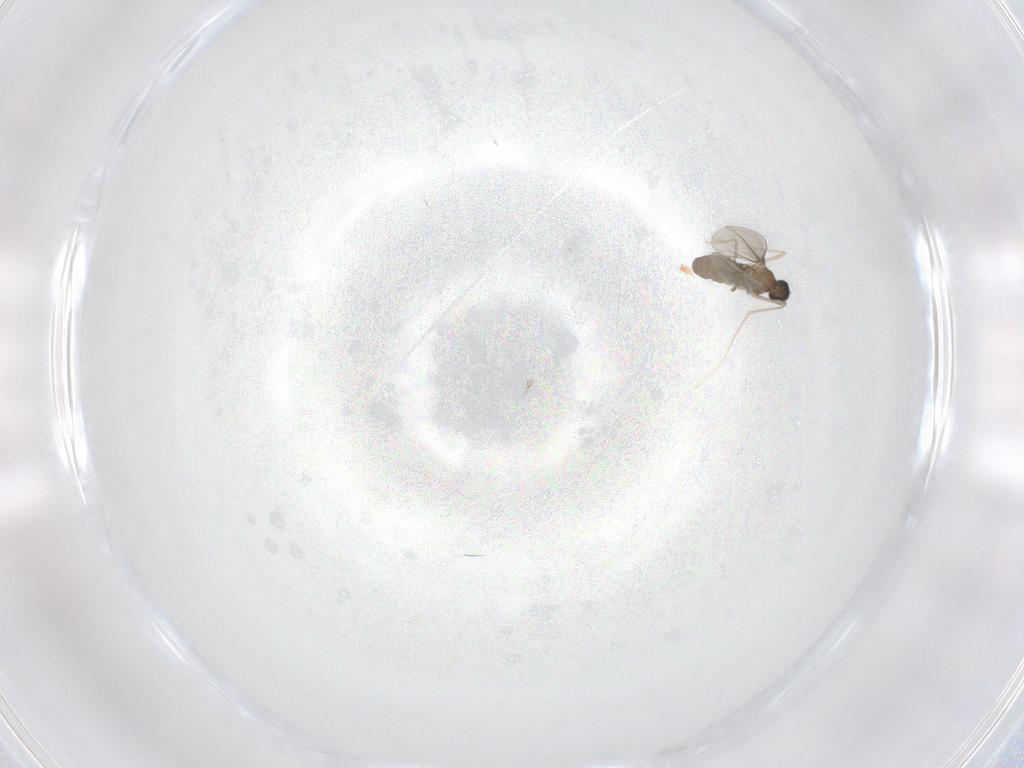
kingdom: Animalia
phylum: Arthropoda
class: Insecta
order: Diptera
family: Cecidomyiidae
